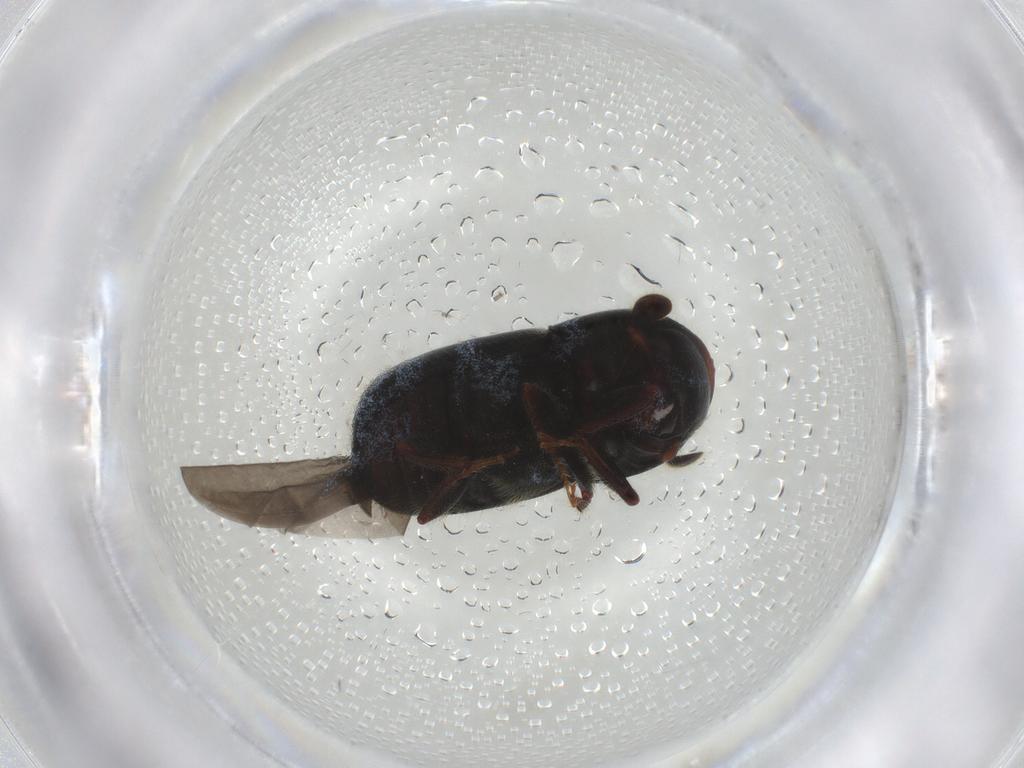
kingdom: Animalia
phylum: Arthropoda
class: Insecta
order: Coleoptera
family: Curculionidae
